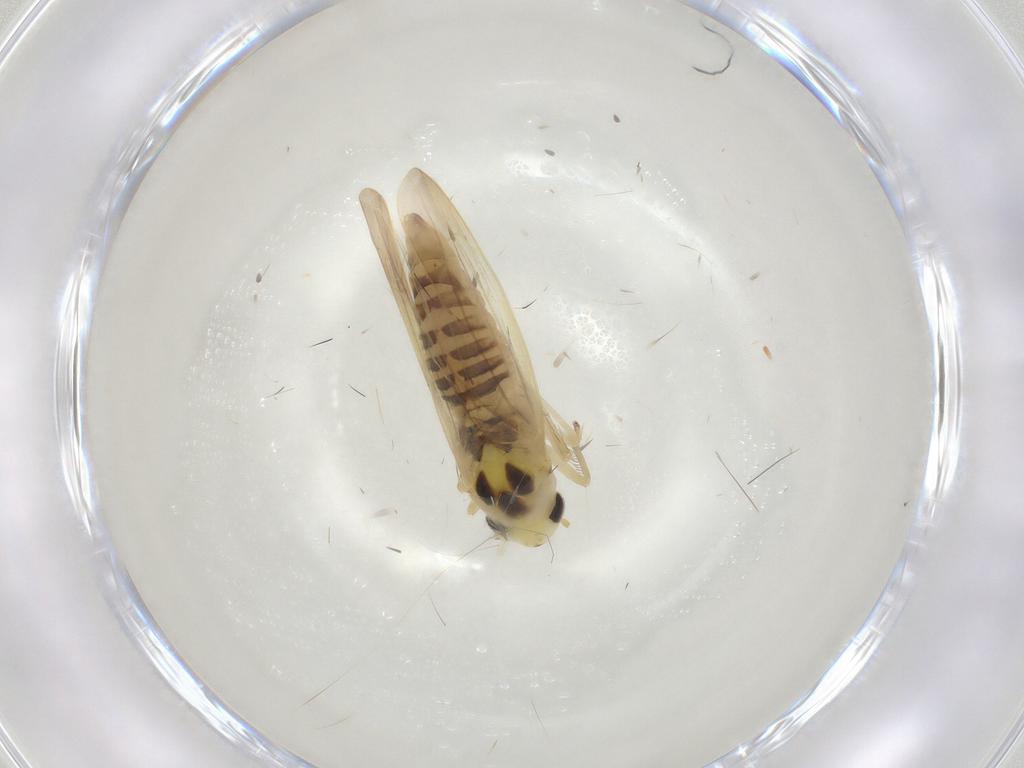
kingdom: Animalia
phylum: Arthropoda
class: Insecta
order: Hemiptera
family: Cicadellidae
